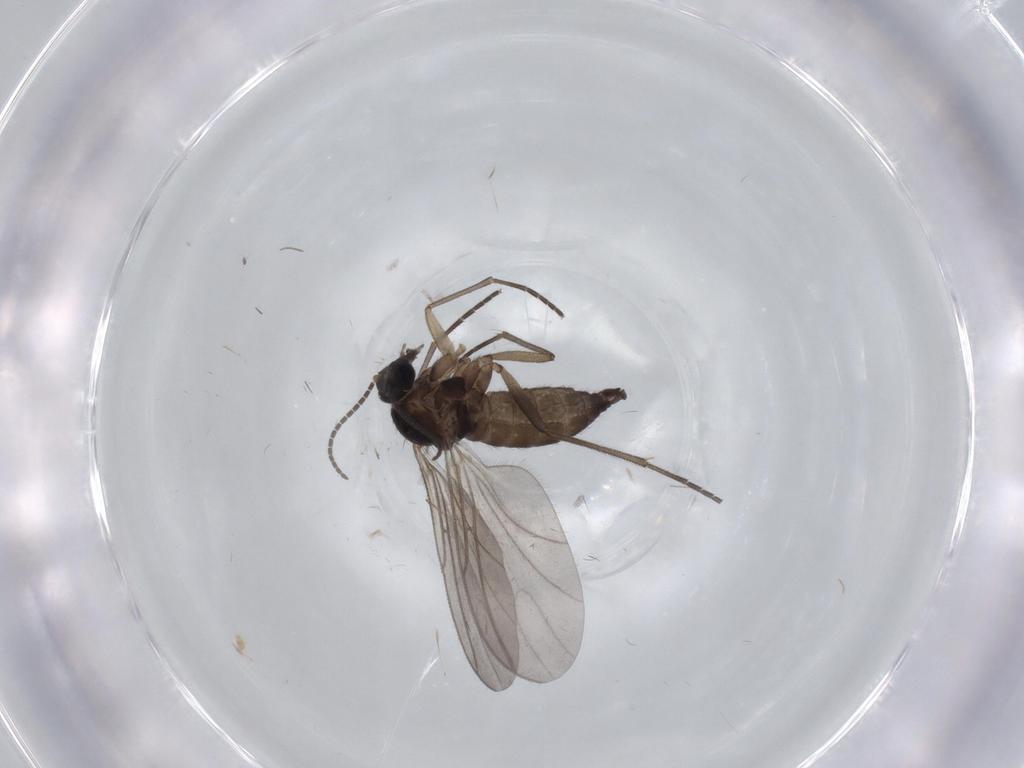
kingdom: Animalia
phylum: Arthropoda
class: Insecta
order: Diptera
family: Sciaridae
